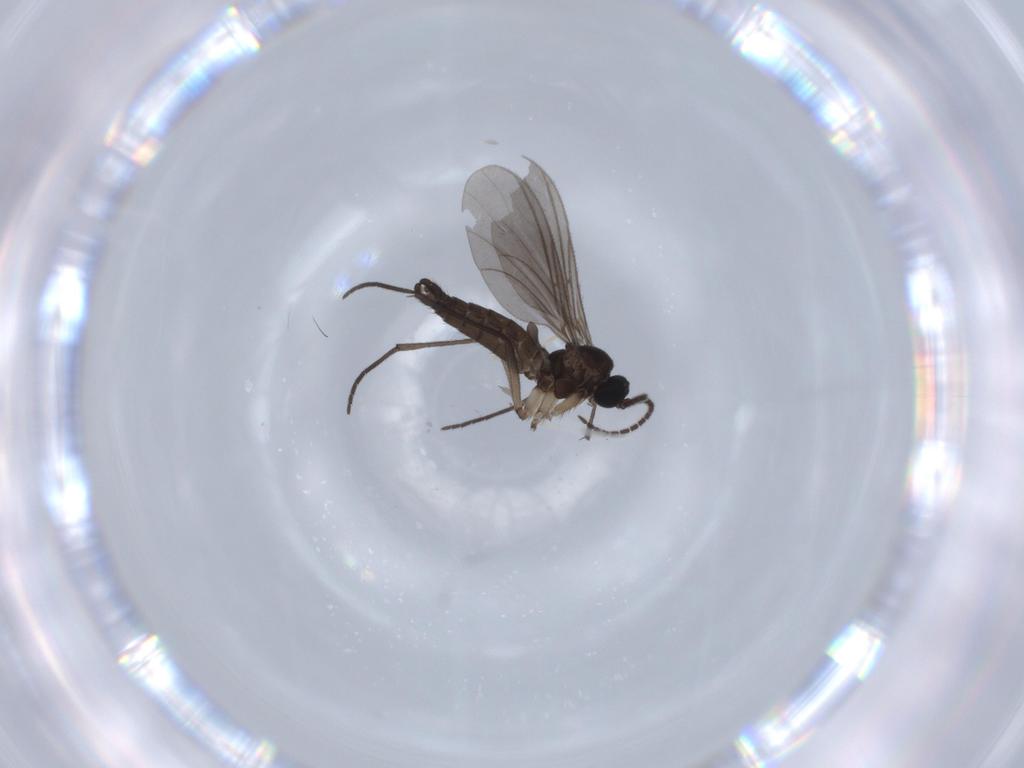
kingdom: Animalia
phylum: Arthropoda
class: Insecta
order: Diptera
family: Sciaridae
